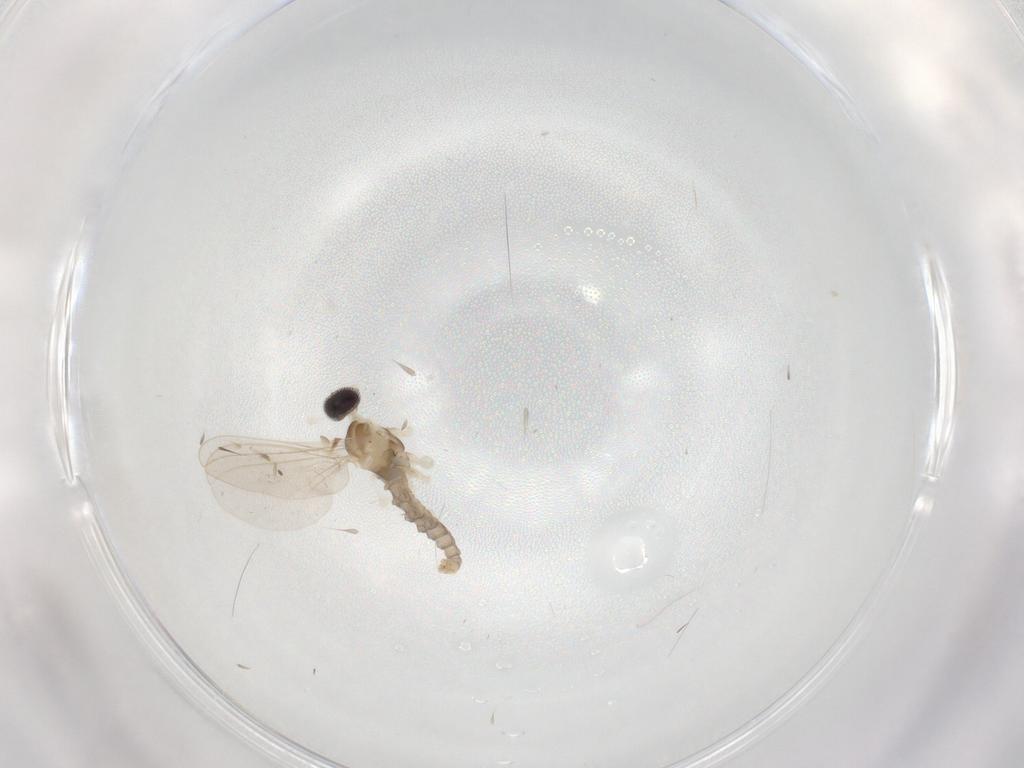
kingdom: Animalia
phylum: Arthropoda
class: Insecta
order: Diptera
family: Cecidomyiidae
